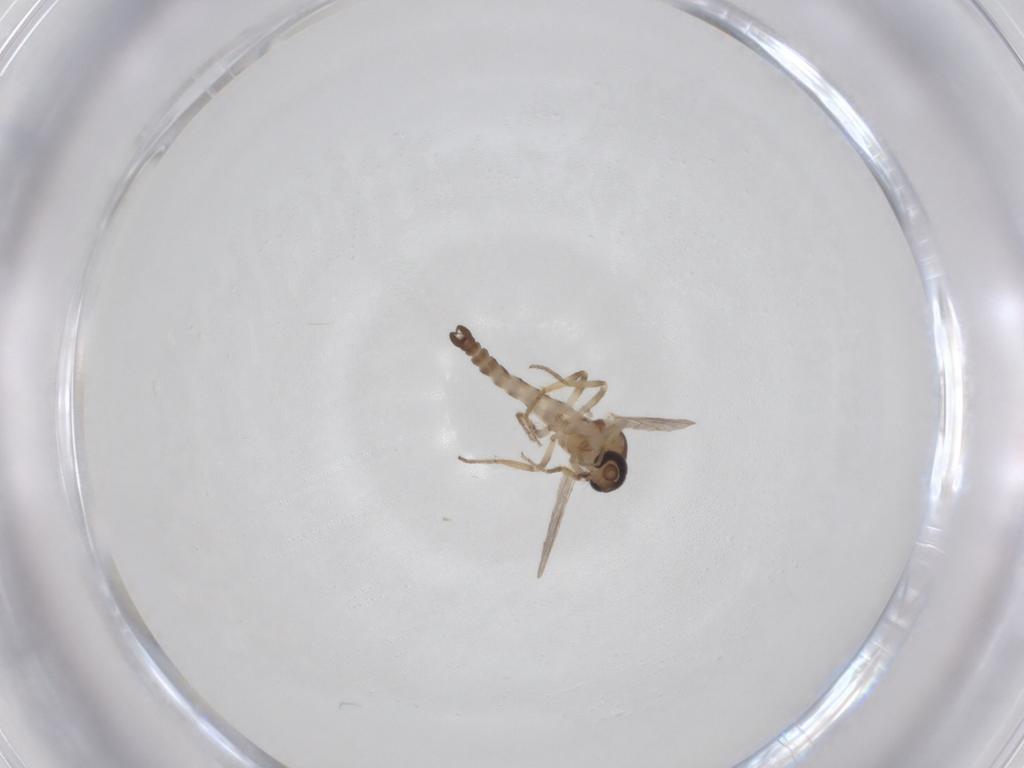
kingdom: Animalia
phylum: Arthropoda
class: Insecta
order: Diptera
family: Ceratopogonidae
